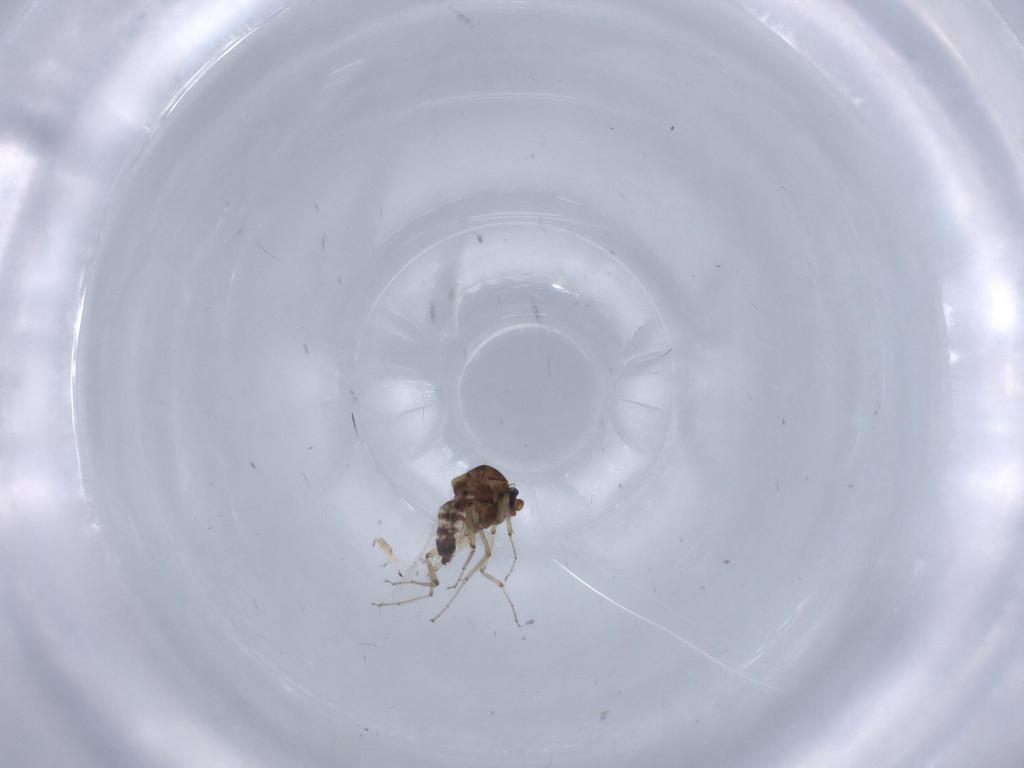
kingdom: Animalia
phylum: Arthropoda
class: Insecta
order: Diptera
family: Ceratopogonidae
